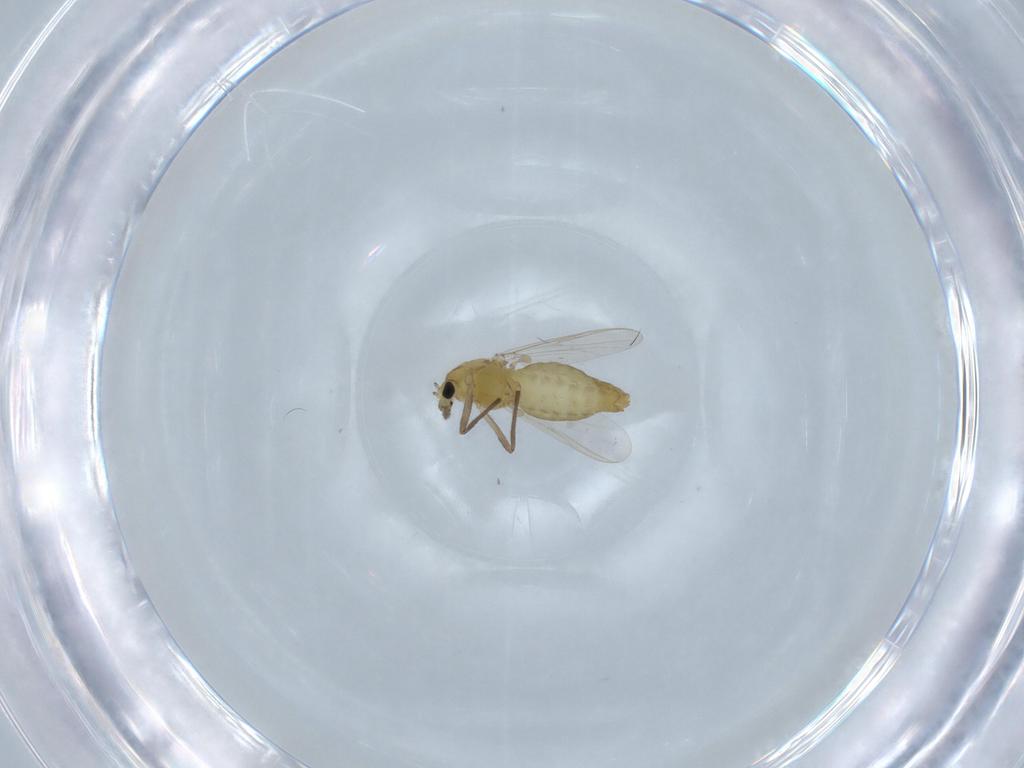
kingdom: Animalia
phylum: Arthropoda
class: Insecta
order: Diptera
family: Chironomidae
